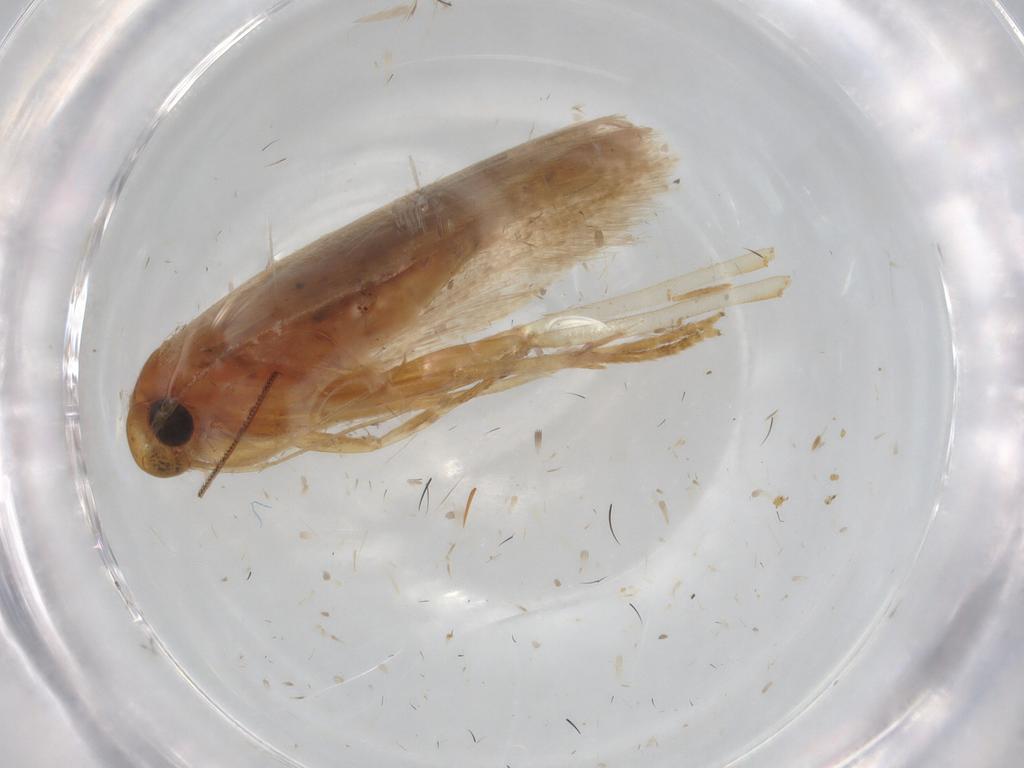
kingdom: Animalia
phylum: Arthropoda
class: Insecta
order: Lepidoptera
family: Gelechiidae
